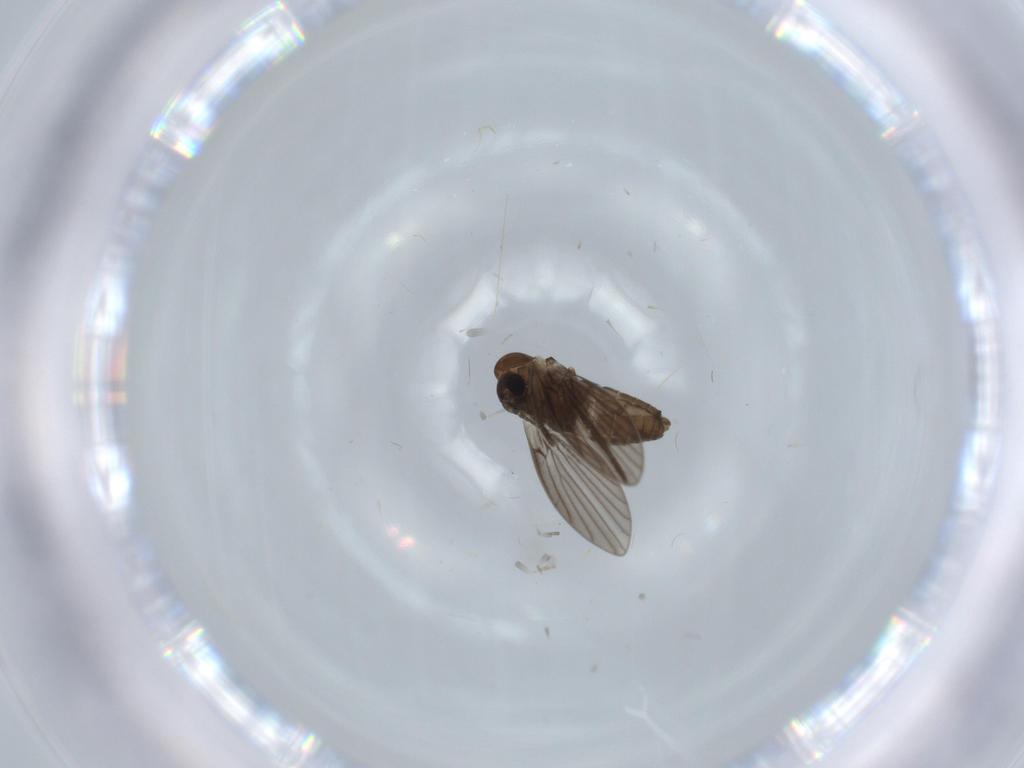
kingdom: Animalia
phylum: Arthropoda
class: Insecta
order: Diptera
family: Psychodidae
